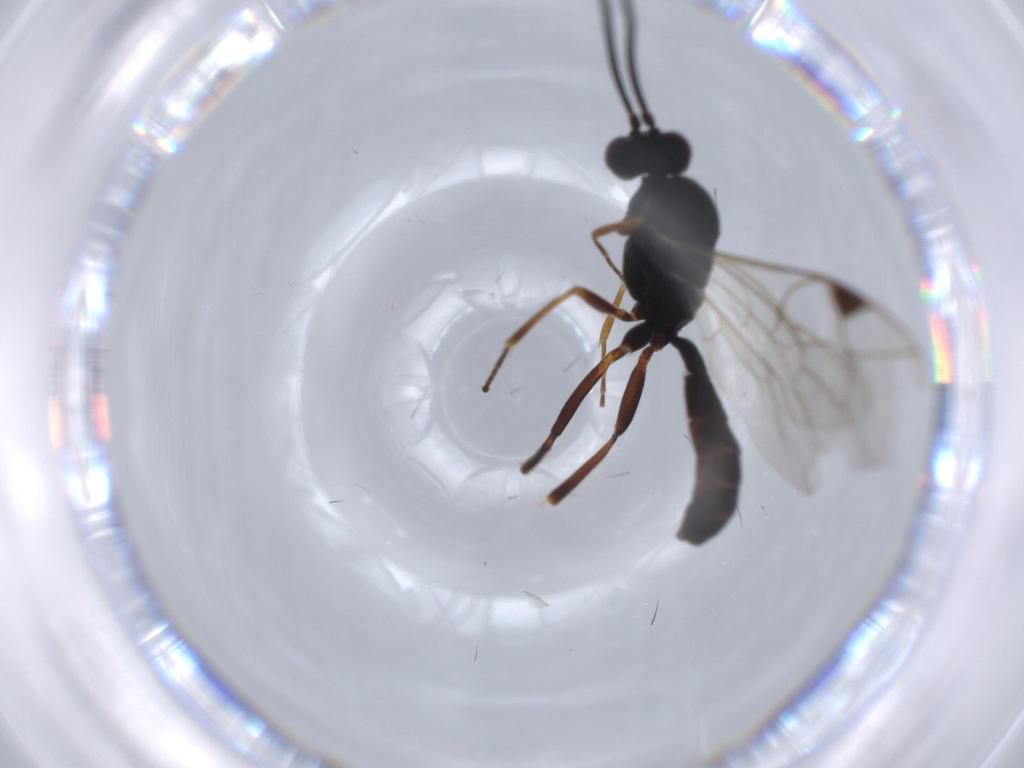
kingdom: Animalia
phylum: Arthropoda
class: Insecta
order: Hymenoptera
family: Ichneumonidae
